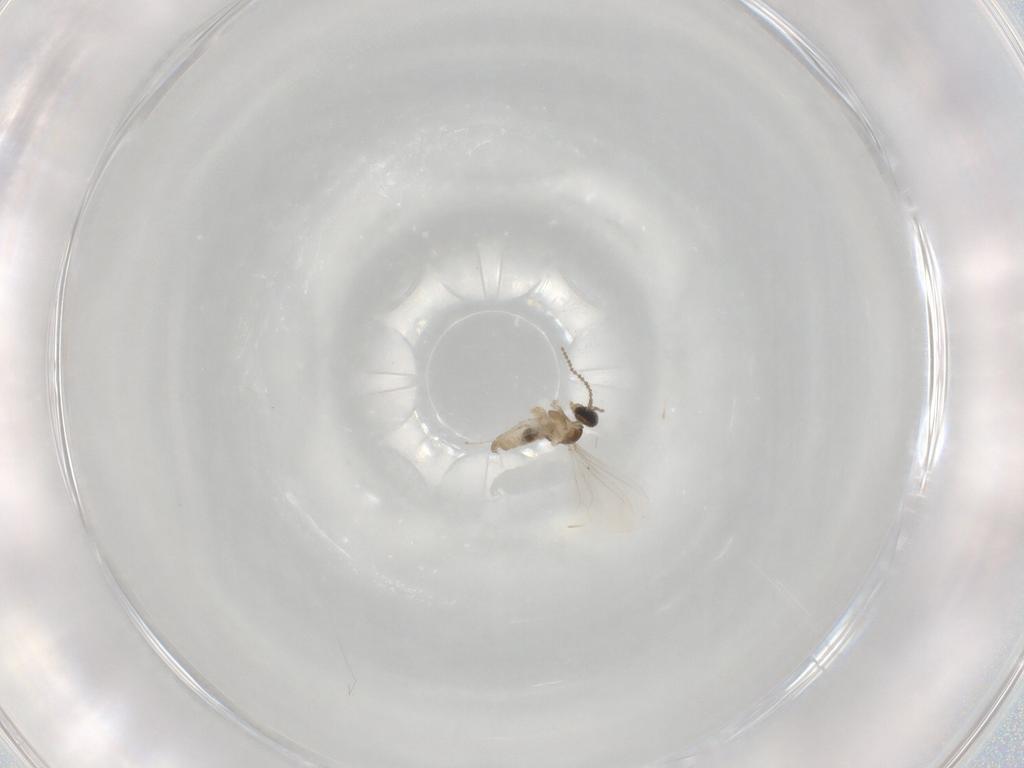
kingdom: Animalia
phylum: Arthropoda
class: Insecta
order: Diptera
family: Cecidomyiidae
